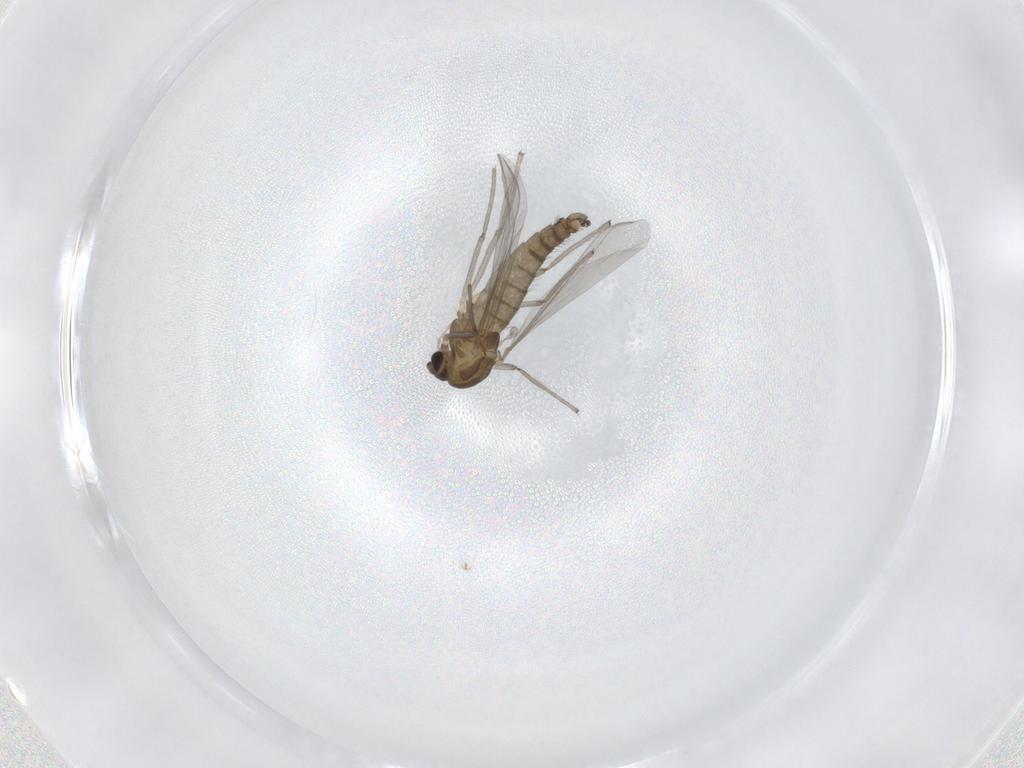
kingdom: Animalia
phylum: Arthropoda
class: Insecta
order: Diptera
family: Chironomidae
